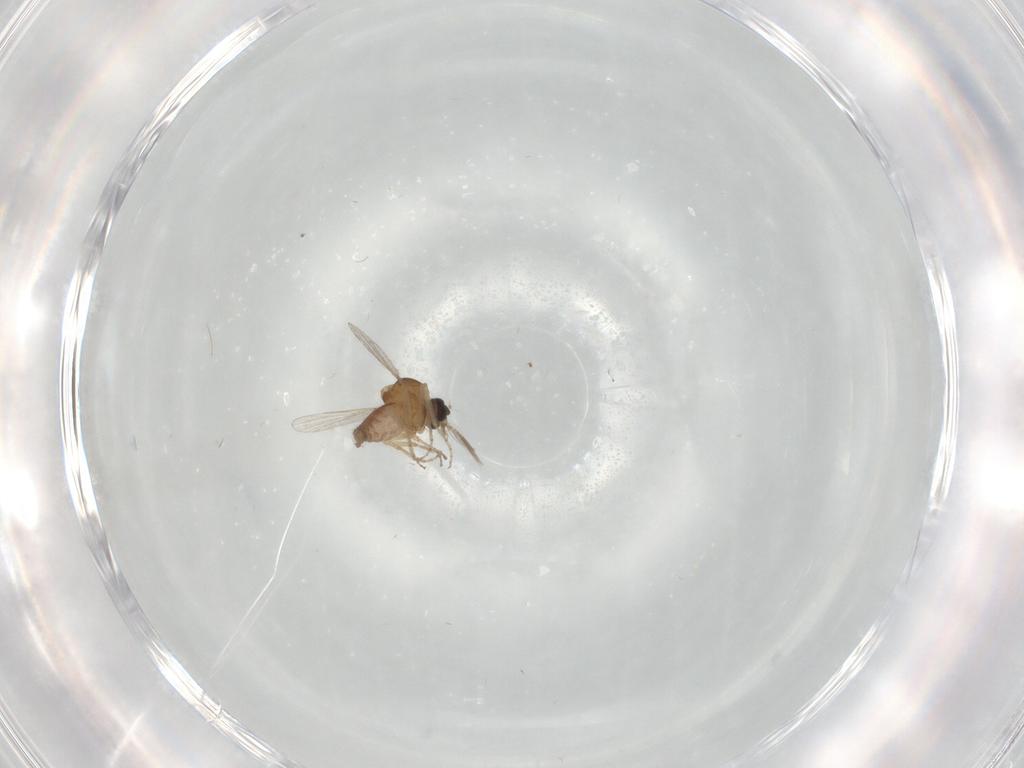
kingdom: Animalia
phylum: Arthropoda
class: Insecta
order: Diptera
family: Ceratopogonidae
